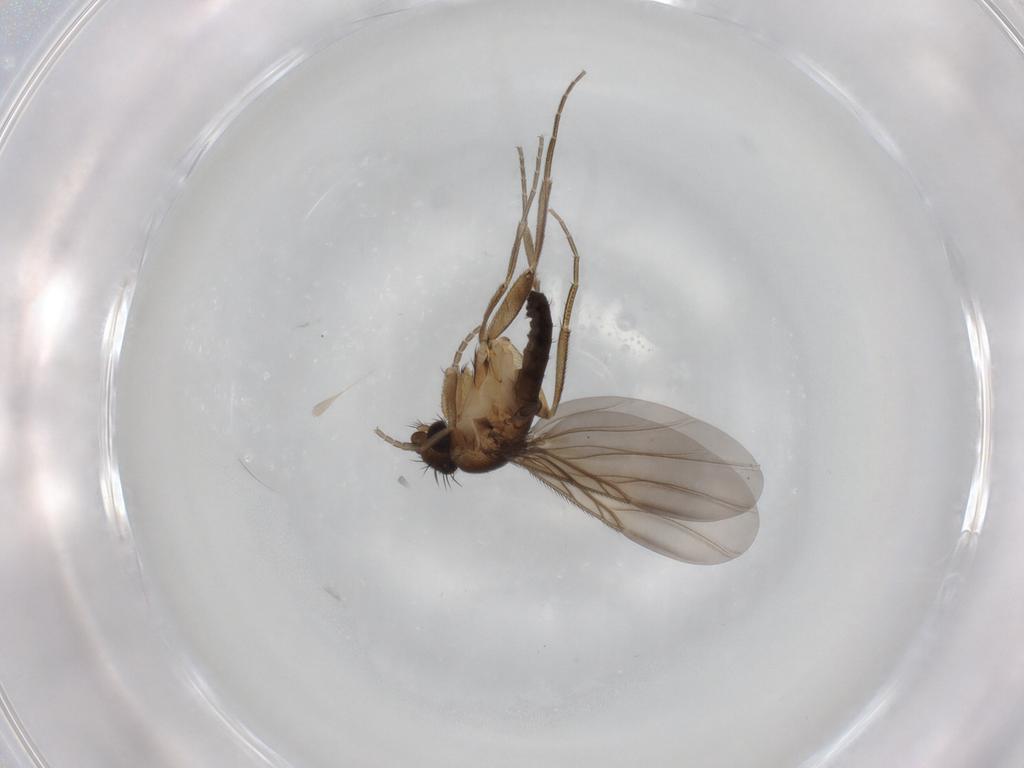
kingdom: Animalia
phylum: Arthropoda
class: Insecta
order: Diptera
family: Phoridae
